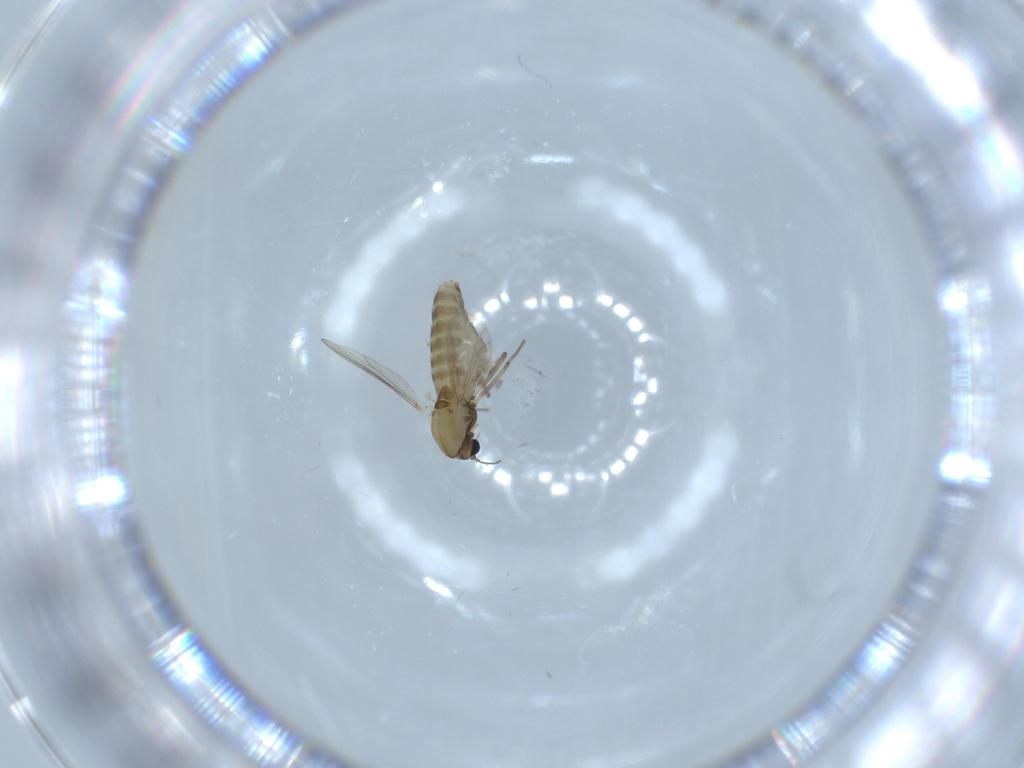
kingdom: Animalia
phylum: Arthropoda
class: Insecta
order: Diptera
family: Chironomidae
